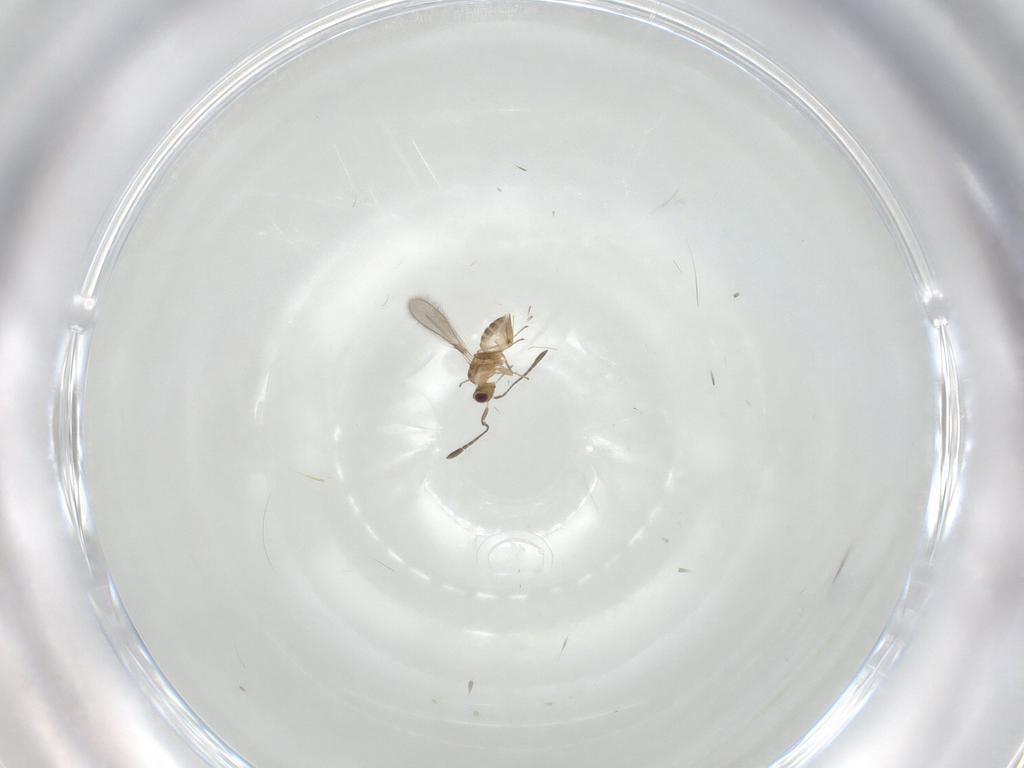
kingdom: Animalia
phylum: Arthropoda
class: Insecta
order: Hymenoptera
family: Mymaridae
